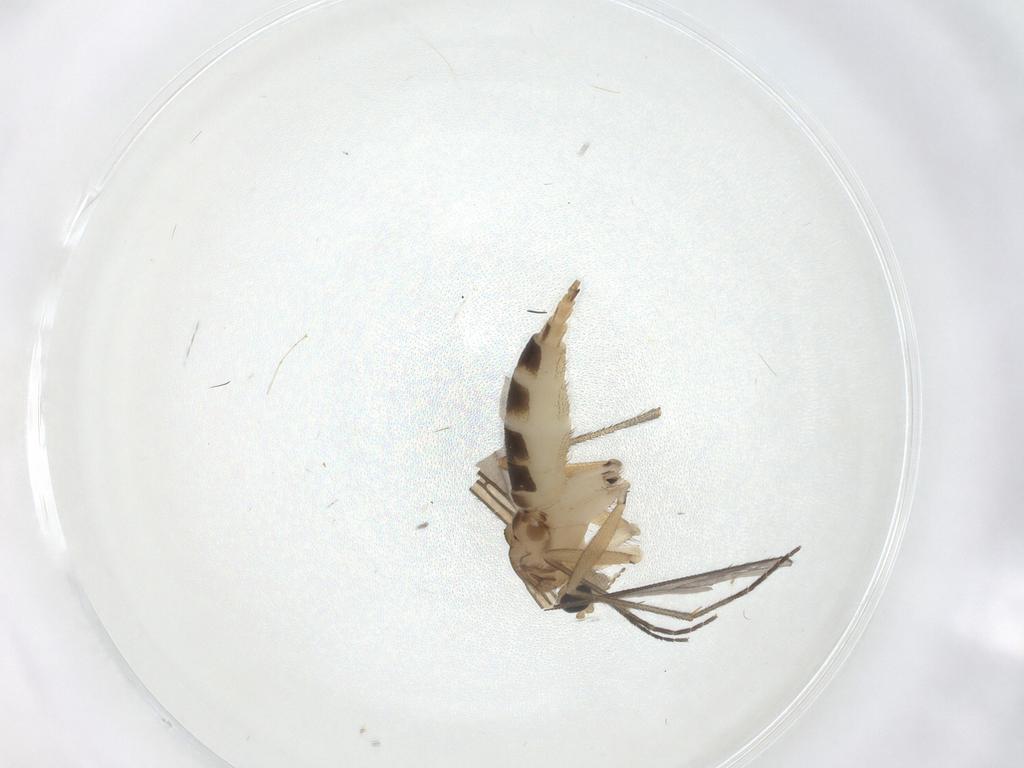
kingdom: Animalia
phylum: Arthropoda
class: Insecta
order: Diptera
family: Sciaridae
